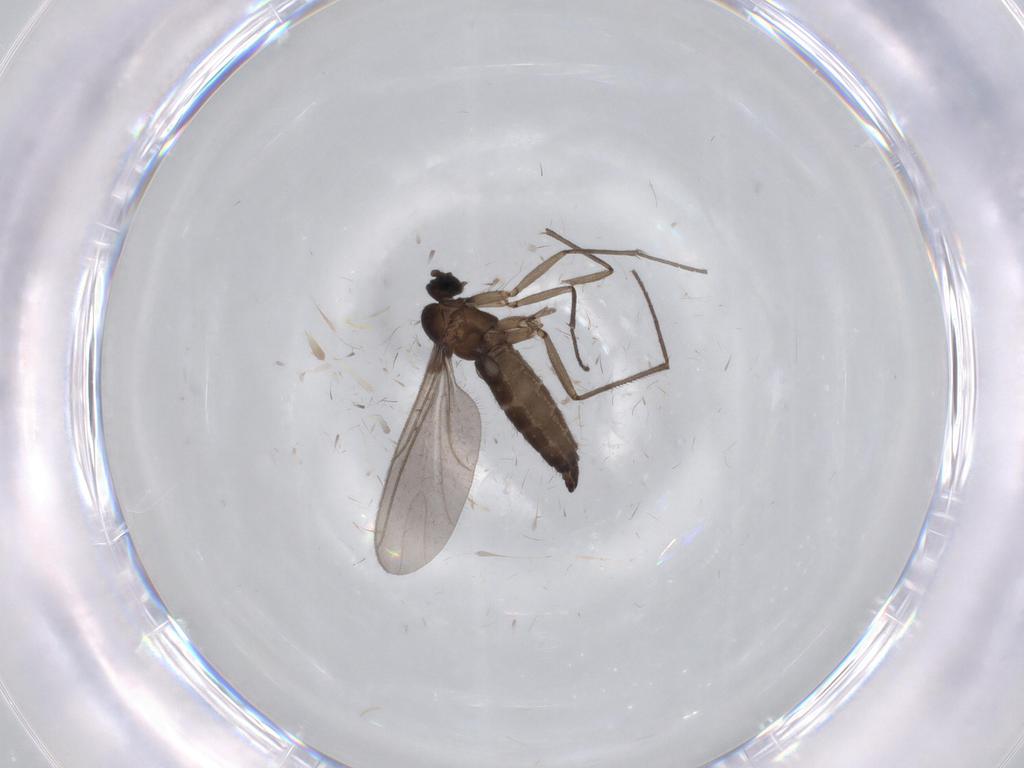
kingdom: Animalia
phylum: Arthropoda
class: Insecta
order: Diptera
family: Sciaridae
